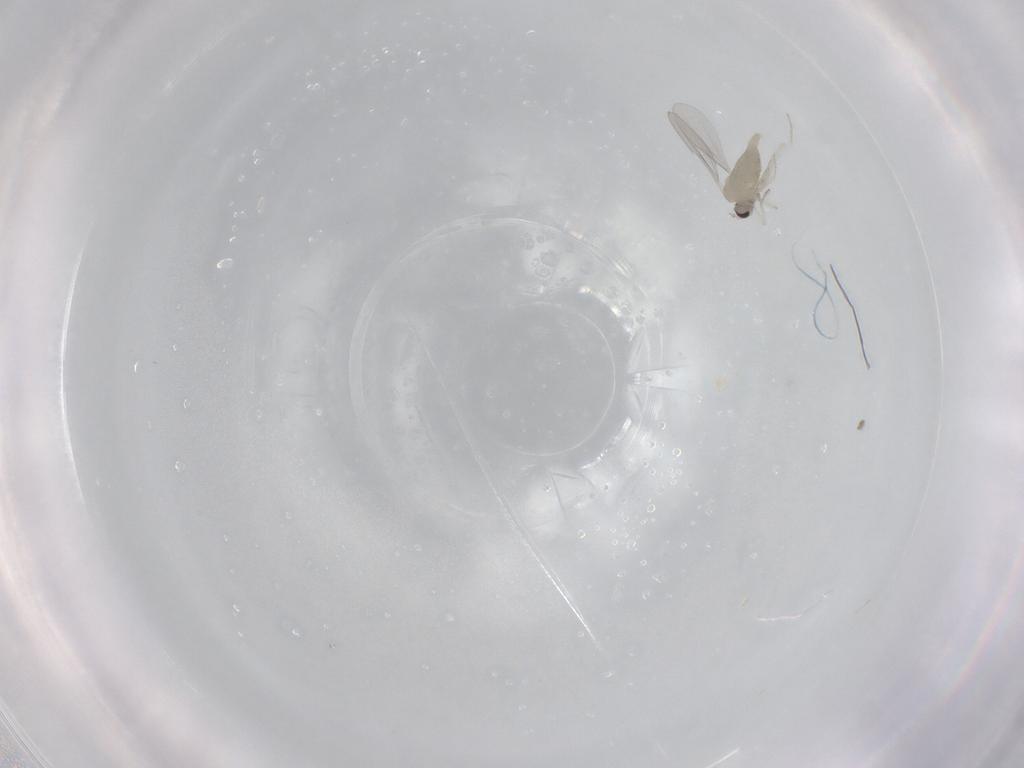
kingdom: Animalia
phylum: Arthropoda
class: Insecta
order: Diptera
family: Cecidomyiidae
